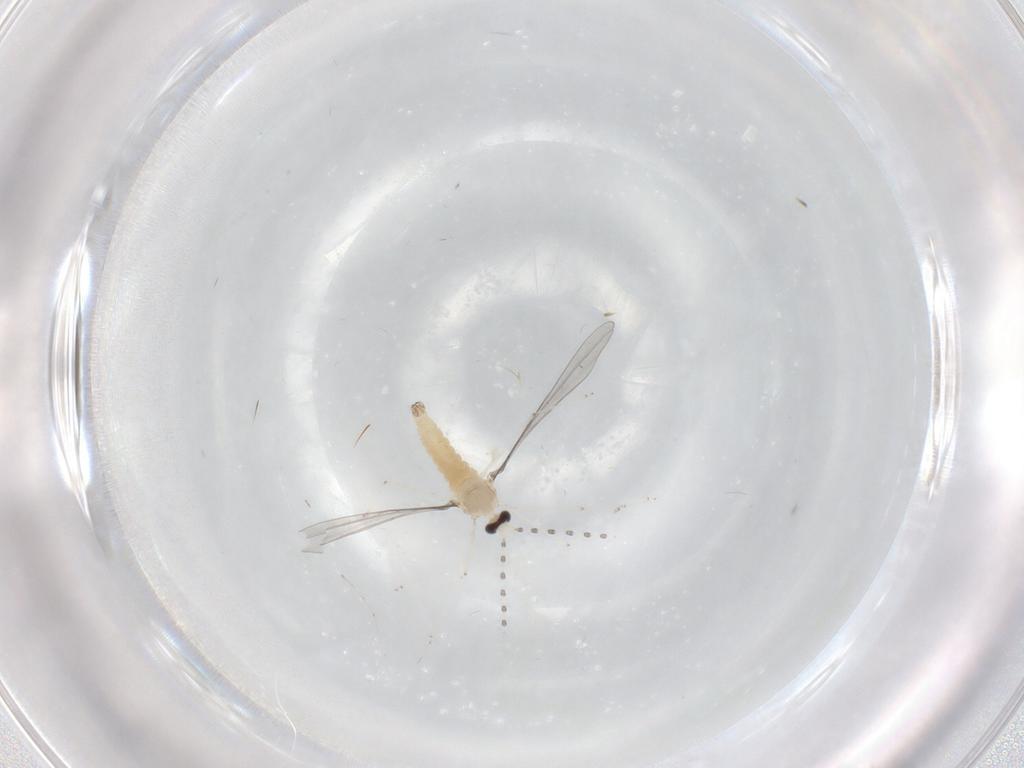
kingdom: Animalia
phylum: Arthropoda
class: Insecta
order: Diptera
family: Cecidomyiidae
